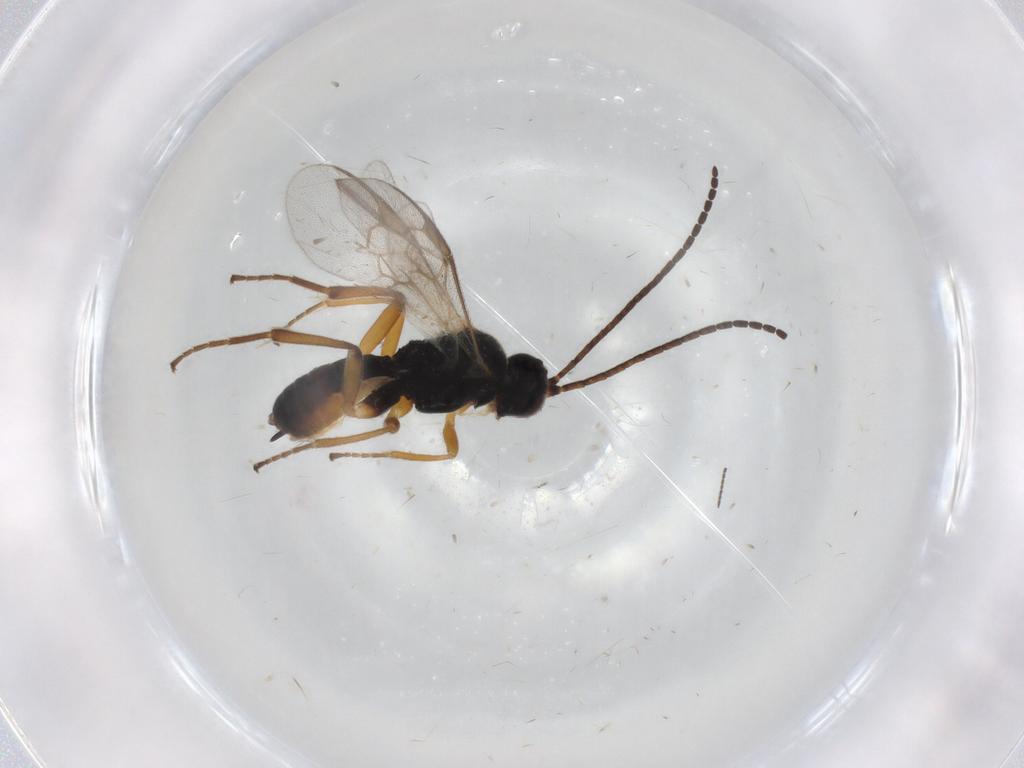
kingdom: Animalia
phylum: Arthropoda
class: Insecta
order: Hymenoptera
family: Braconidae
